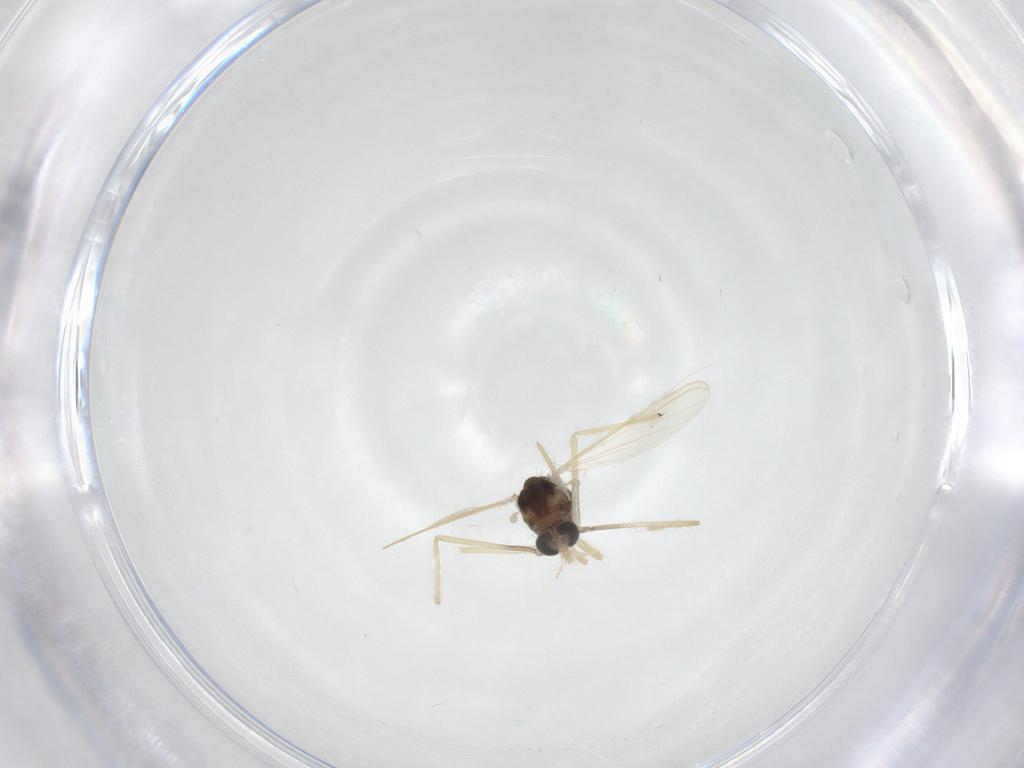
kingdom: Animalia
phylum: Arthropoda
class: Insecta
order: Diptera
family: Chironomidae
